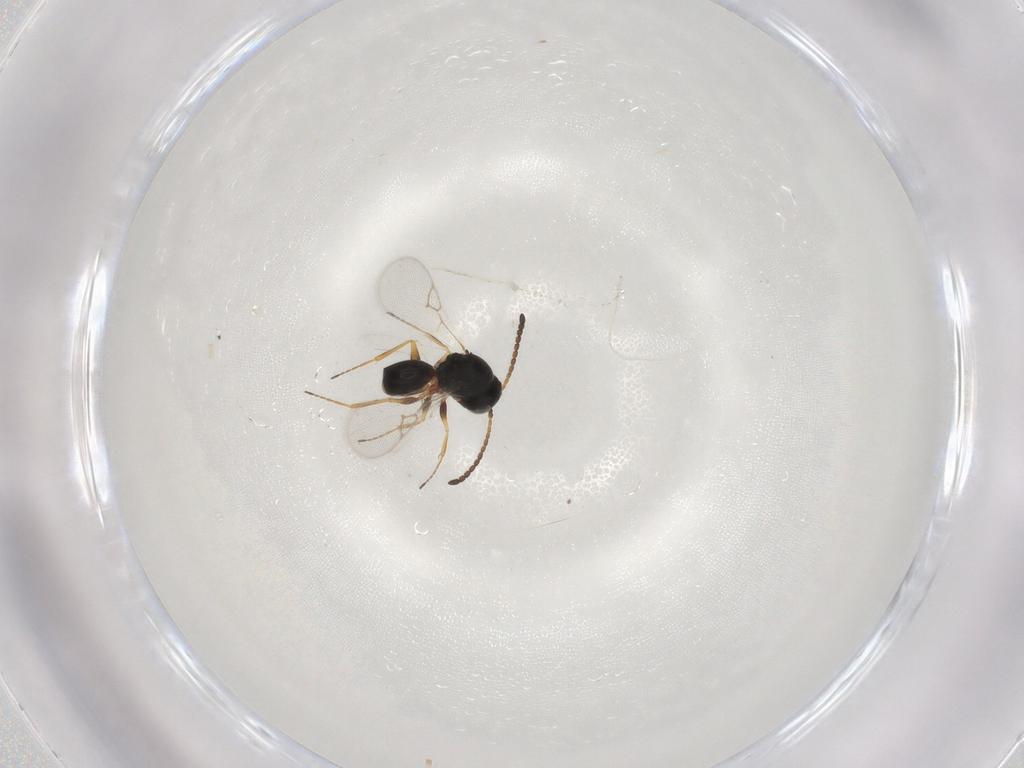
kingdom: Animalia
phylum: Arthropoda
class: Insecta
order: Hymenoptera
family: Figitidae
